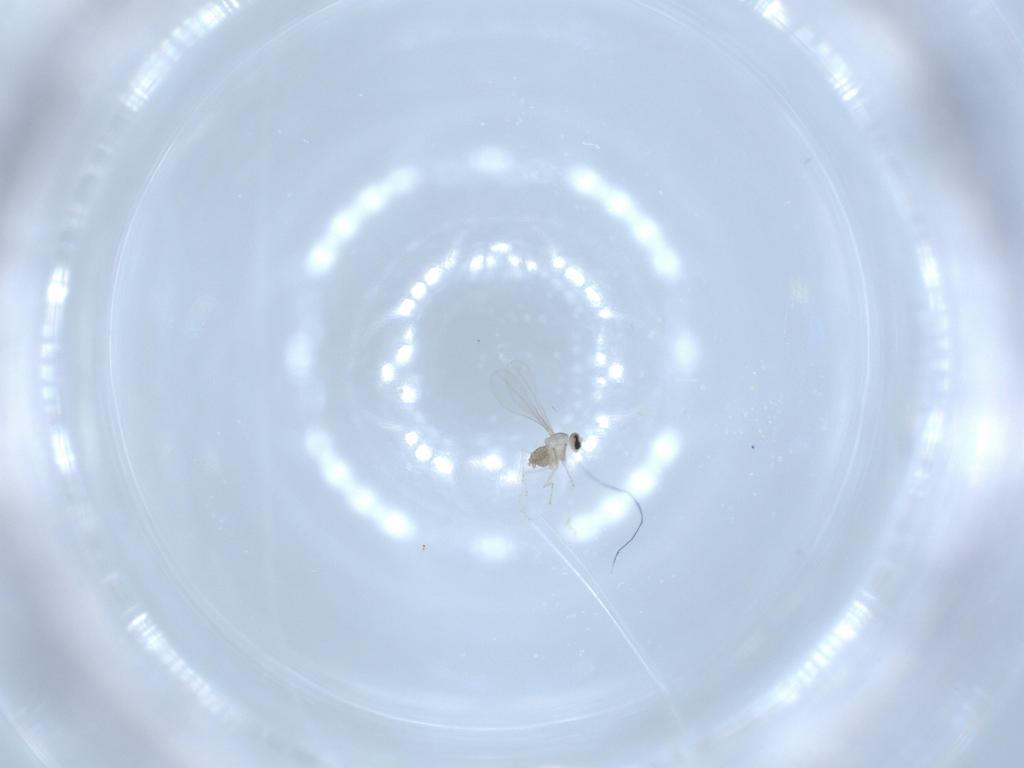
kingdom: Animalia
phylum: Arthropoda
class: Insecta
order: Diptera
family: Cecidomyiidae
